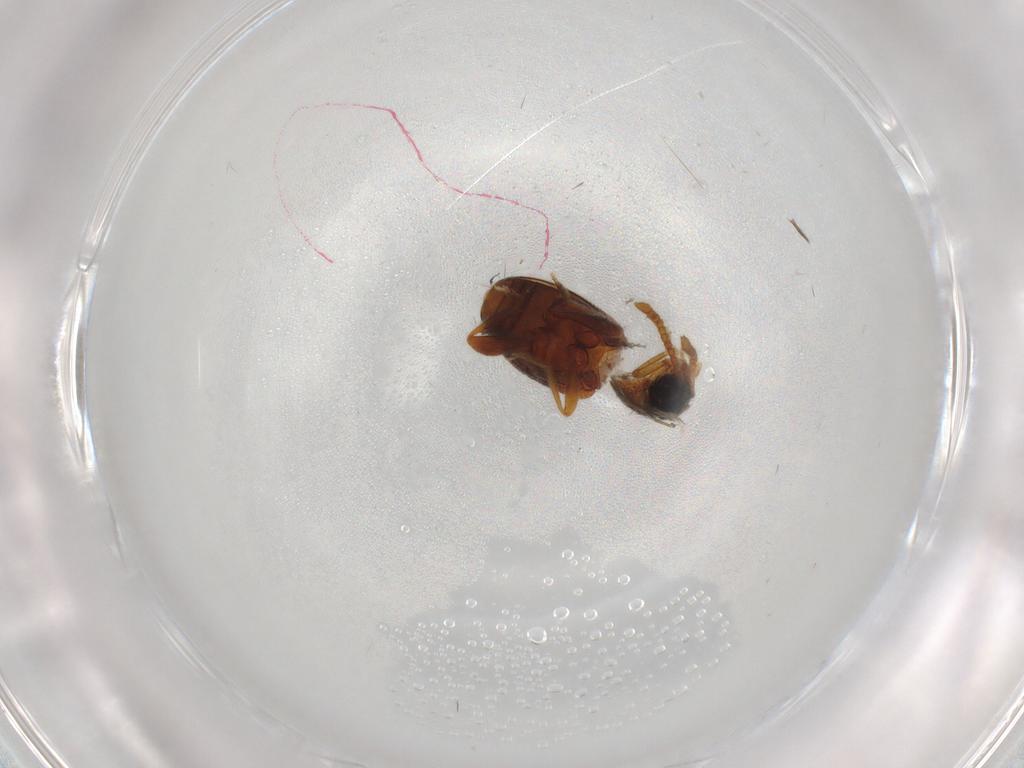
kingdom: Animalia
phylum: Arthropoda
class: Insecta
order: Coleoptera
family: Aderidae
